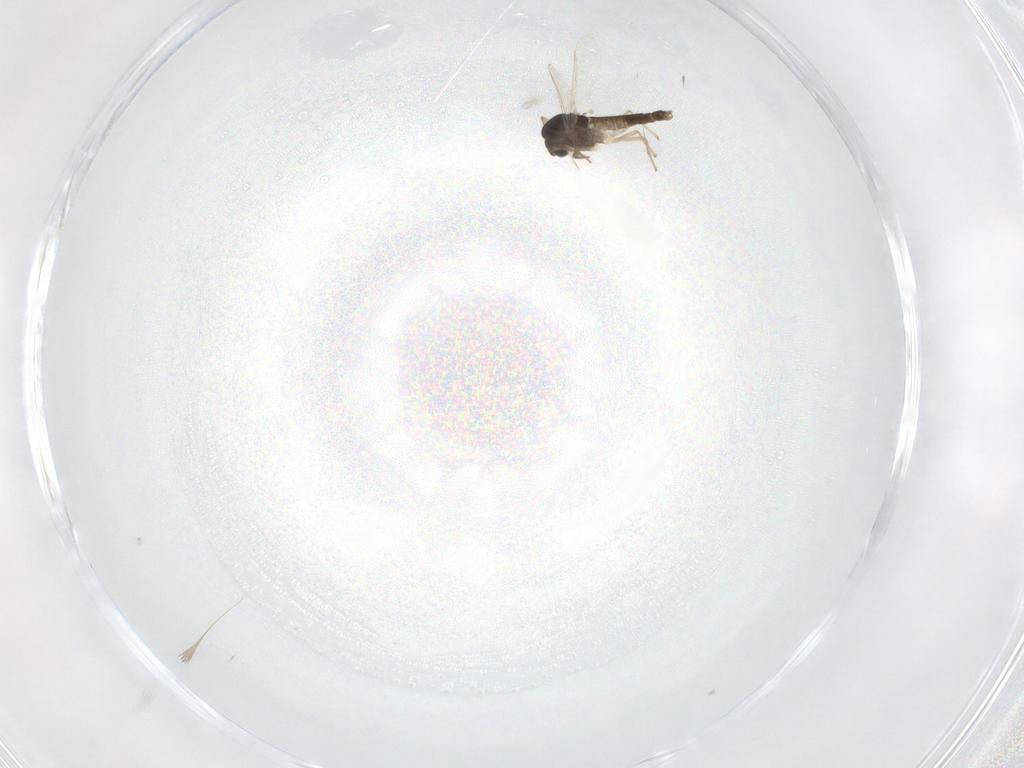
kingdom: Animalia
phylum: Arthropoda
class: Insecta
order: Diptera
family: Cecidomyiidae
